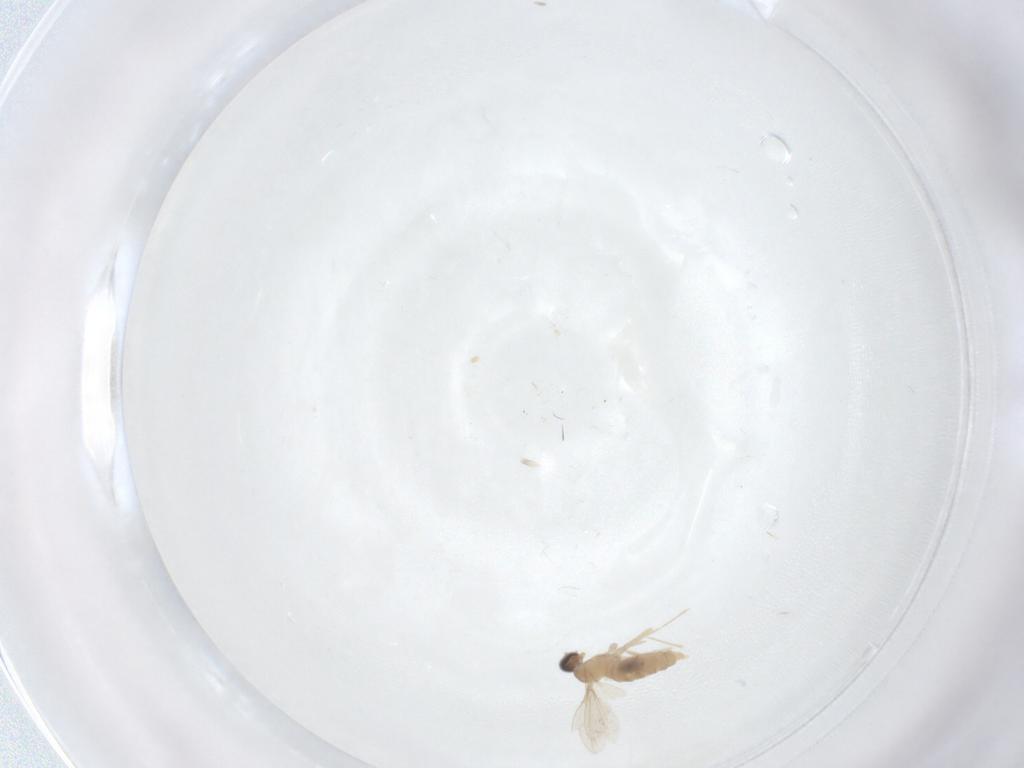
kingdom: Animalia
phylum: Arthropoda
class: Insecta
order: Diptera
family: Cecidomyiidae
